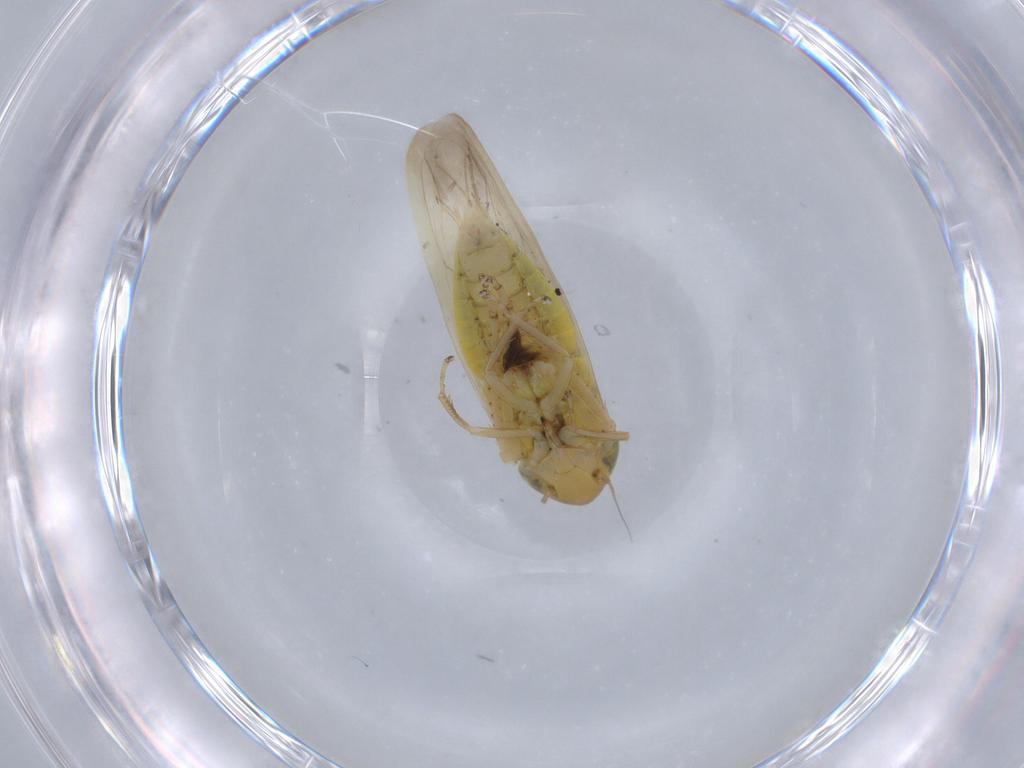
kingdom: Animalia
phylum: Arthropoda
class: Insecta
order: Hemiptera
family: Cicadellidae
